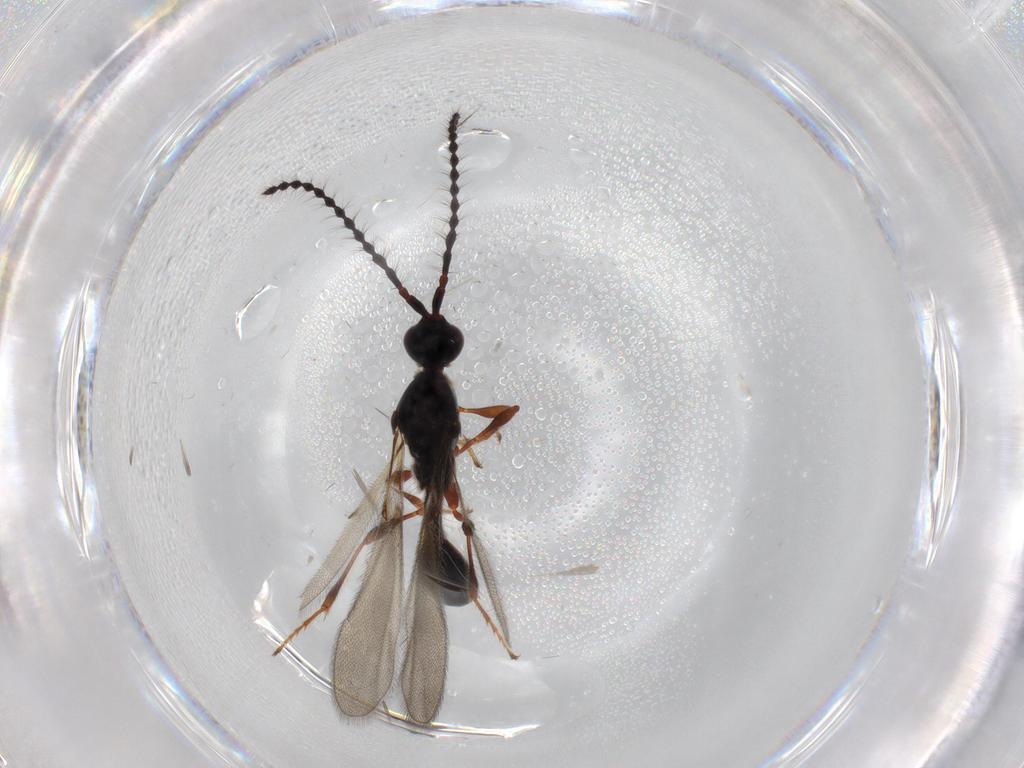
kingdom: Animalia
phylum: Arthropoda
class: Insecta
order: Hymenoptera
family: Diapriidae
